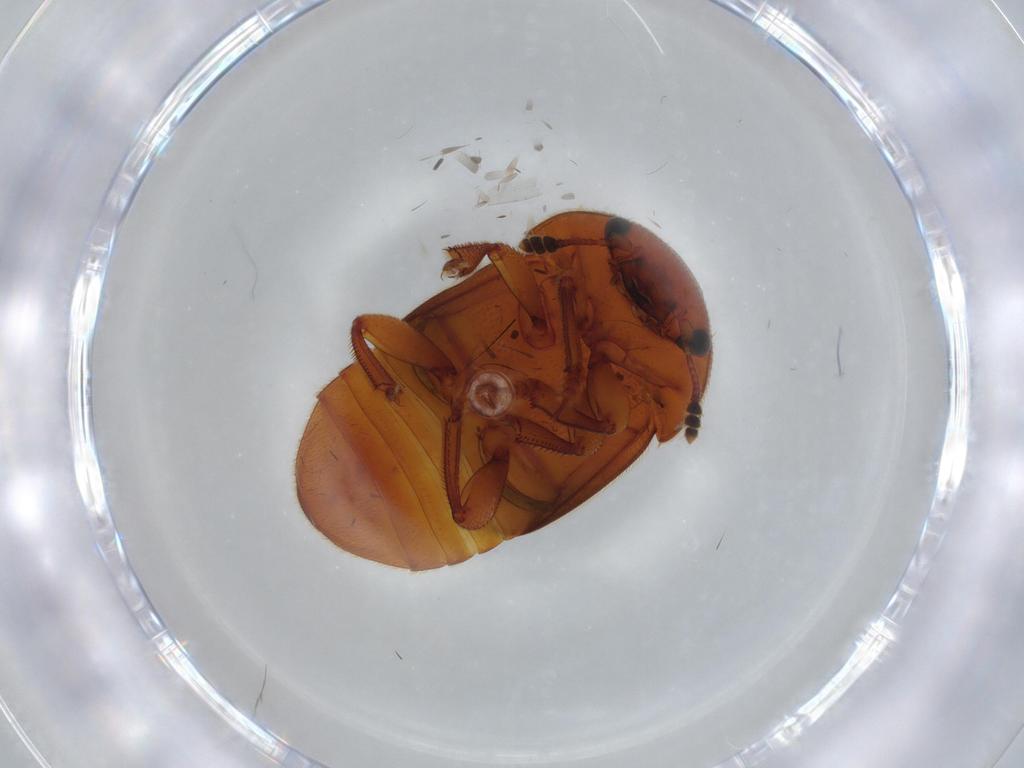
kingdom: Animalia
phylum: Arthropoda
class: Insecta
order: Coleoptera
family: Nitidulidae
